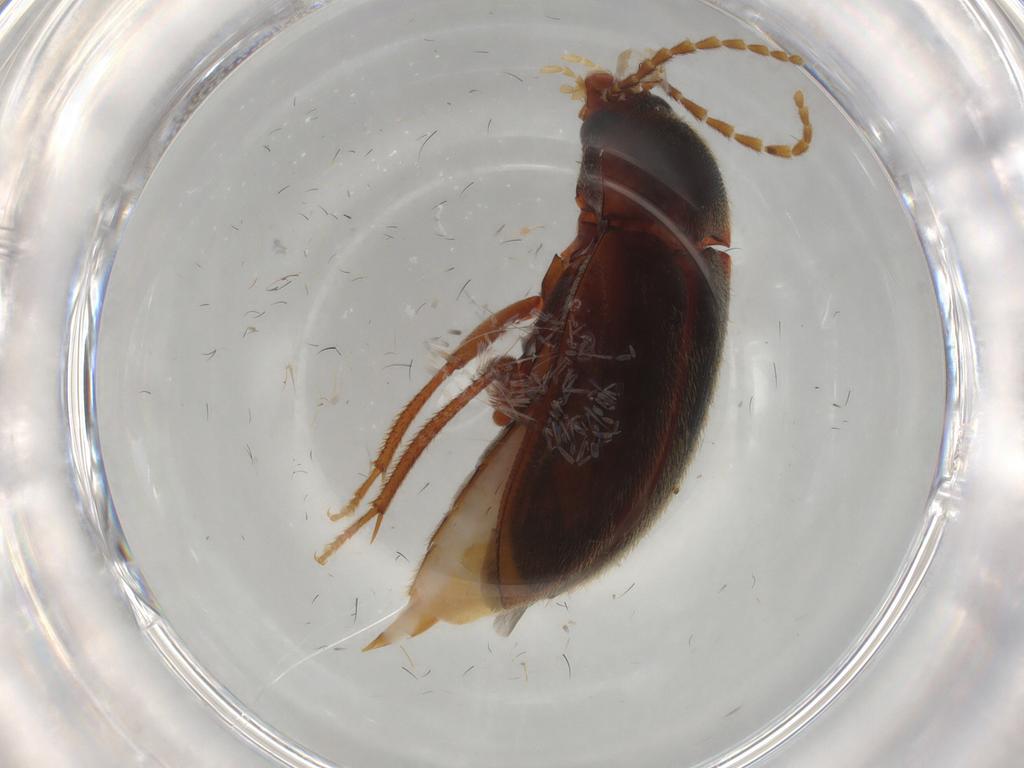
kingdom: Animalia
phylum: Arthropoda
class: Insecta
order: Coleoptera
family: Ptilodactylidae
